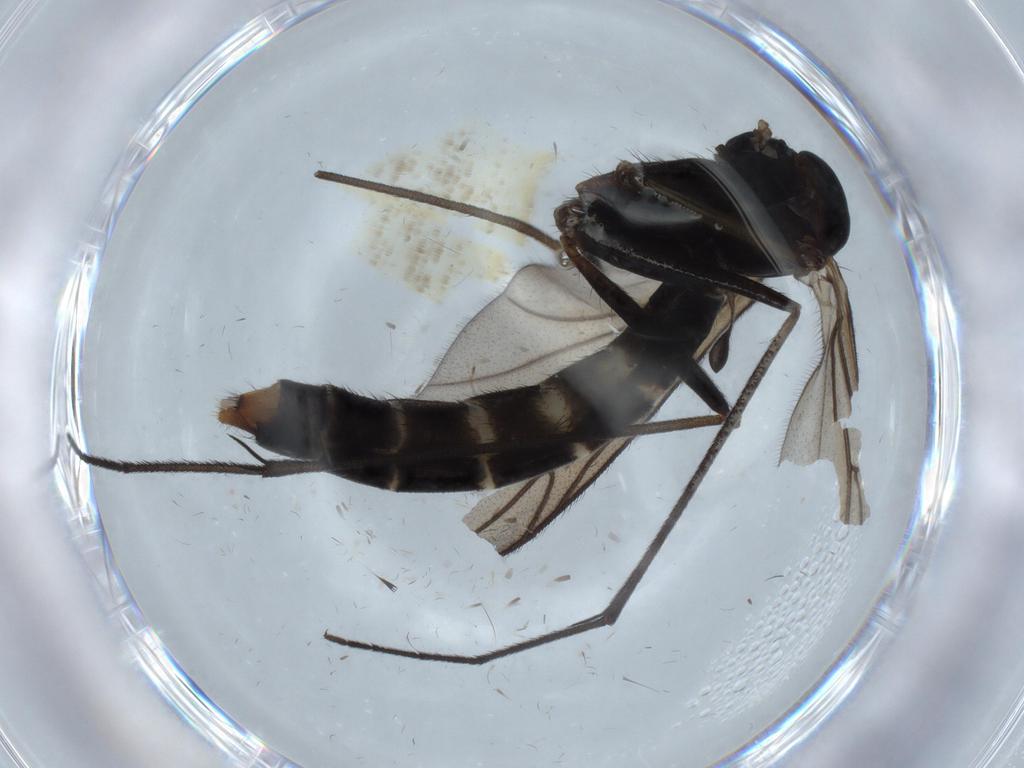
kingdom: Animalia
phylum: Arthropoda
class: Insecta
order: Diptera
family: Ditomyiidae
